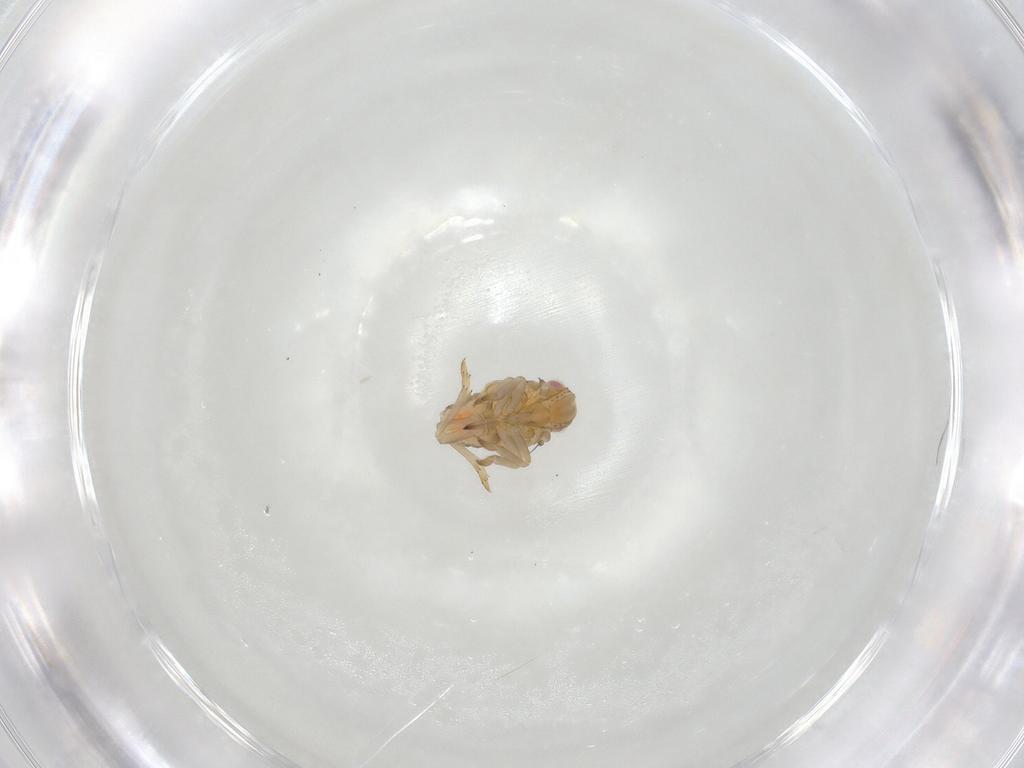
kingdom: Animalia
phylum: Arthropoda
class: Insecta
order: Hemiptera
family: Tropiduchidae
